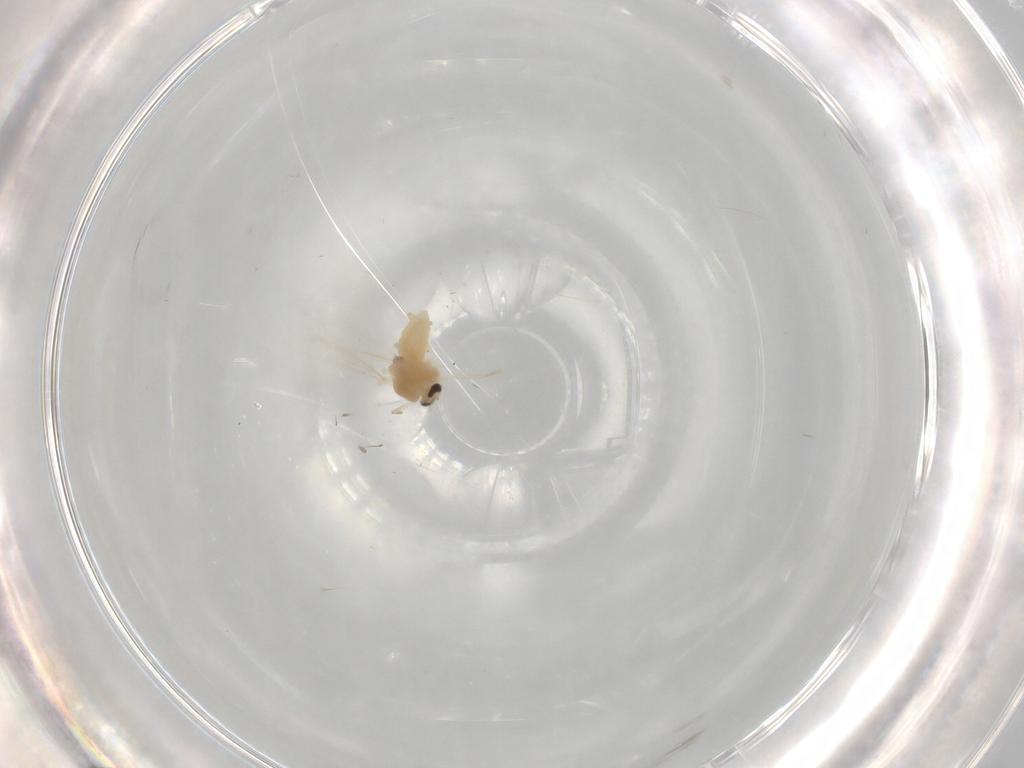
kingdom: Animalia
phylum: Arthropoda
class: Insecta
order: Diptera
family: Chironomidae
